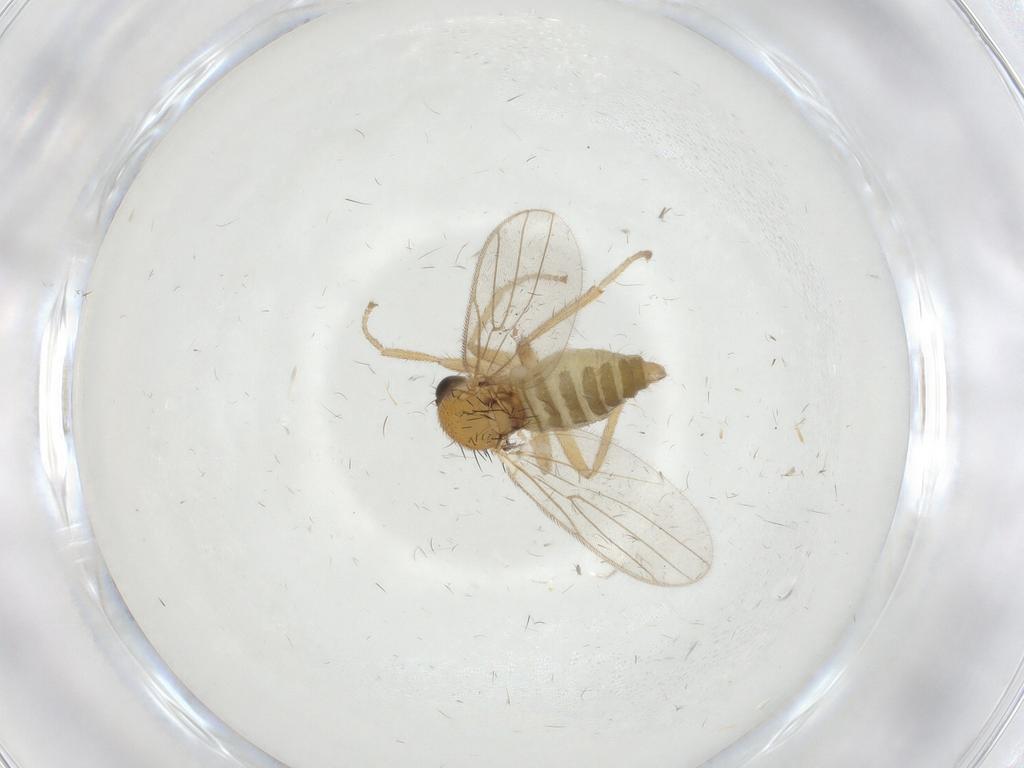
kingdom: Animalia
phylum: Arthropoda
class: Insecta
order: Diptera
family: Hybotidae
